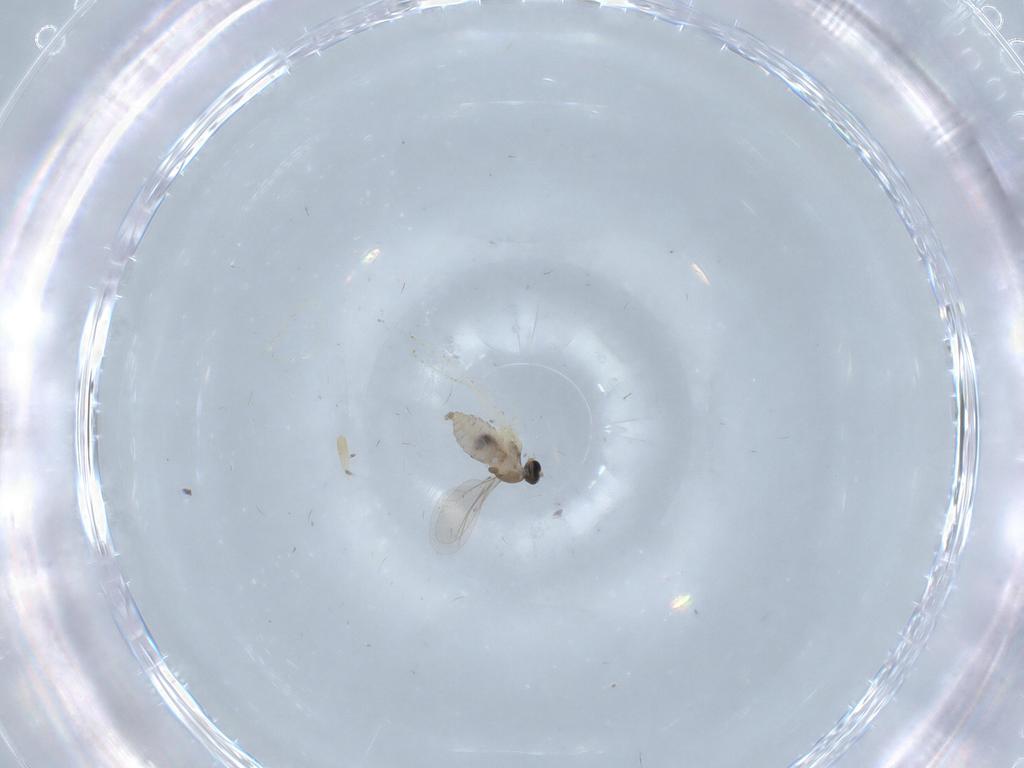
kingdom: Animalia
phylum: Arthropoda
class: Insecta
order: Diptera
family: Cecidomyiidae
